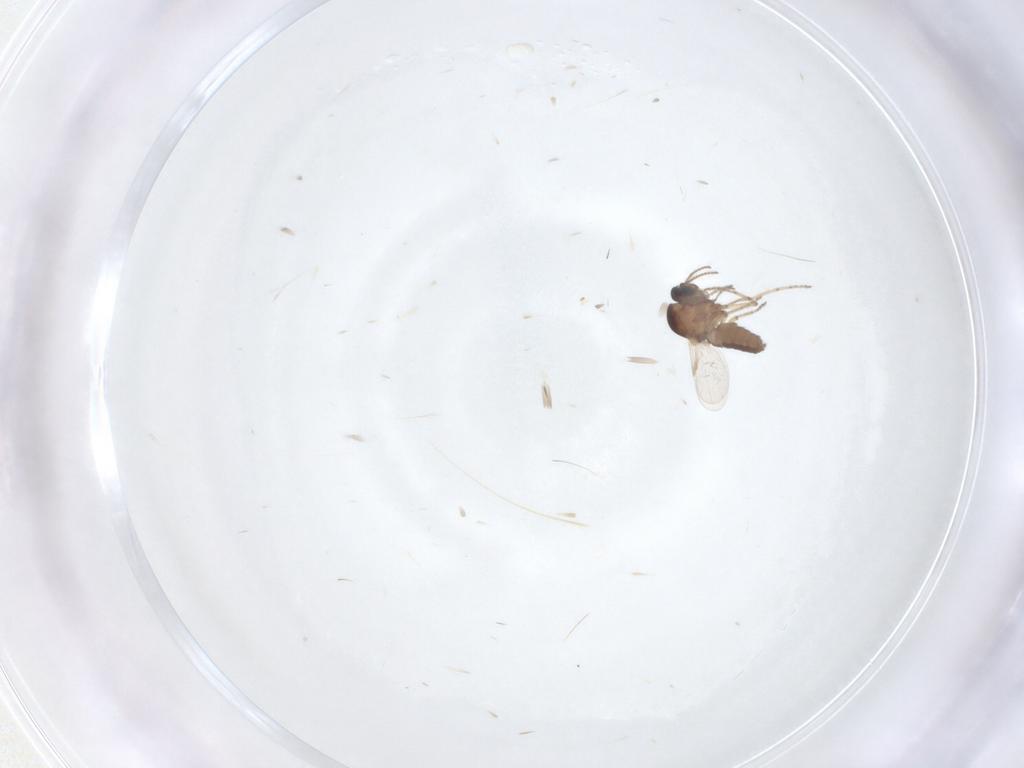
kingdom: Animalia
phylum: Arthropoda
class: Insecta
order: Diptera
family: Ceratopogonidae
